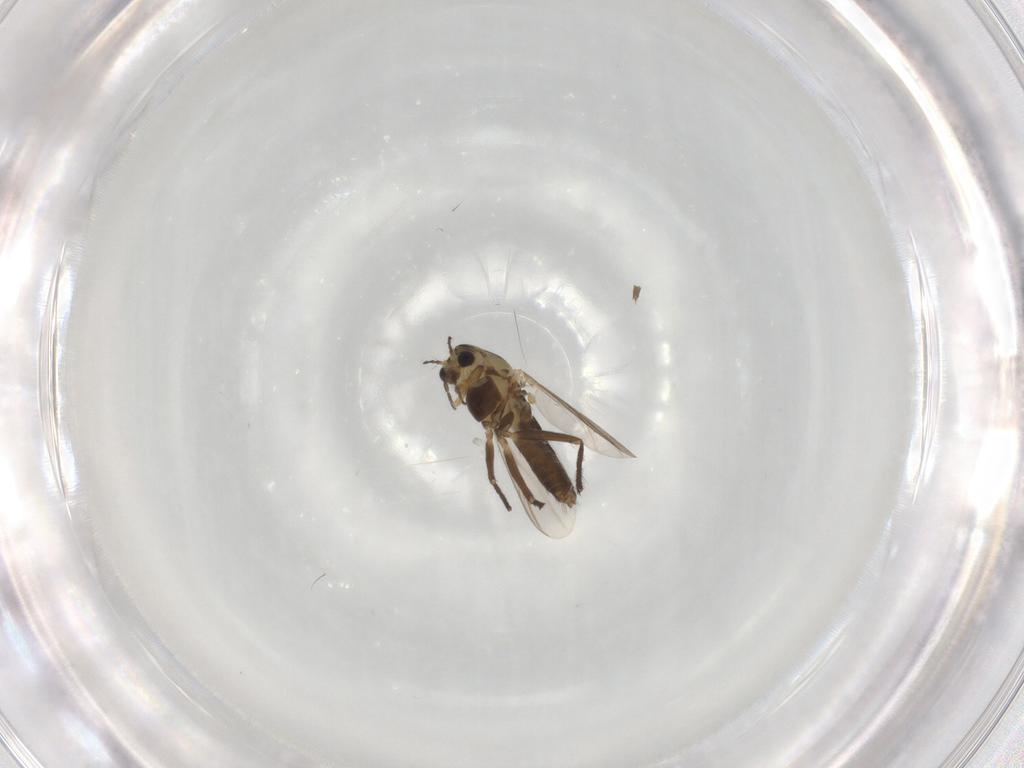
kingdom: Animalia
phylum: Arthropoda
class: Insecta
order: Diptera
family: Chironomidae
